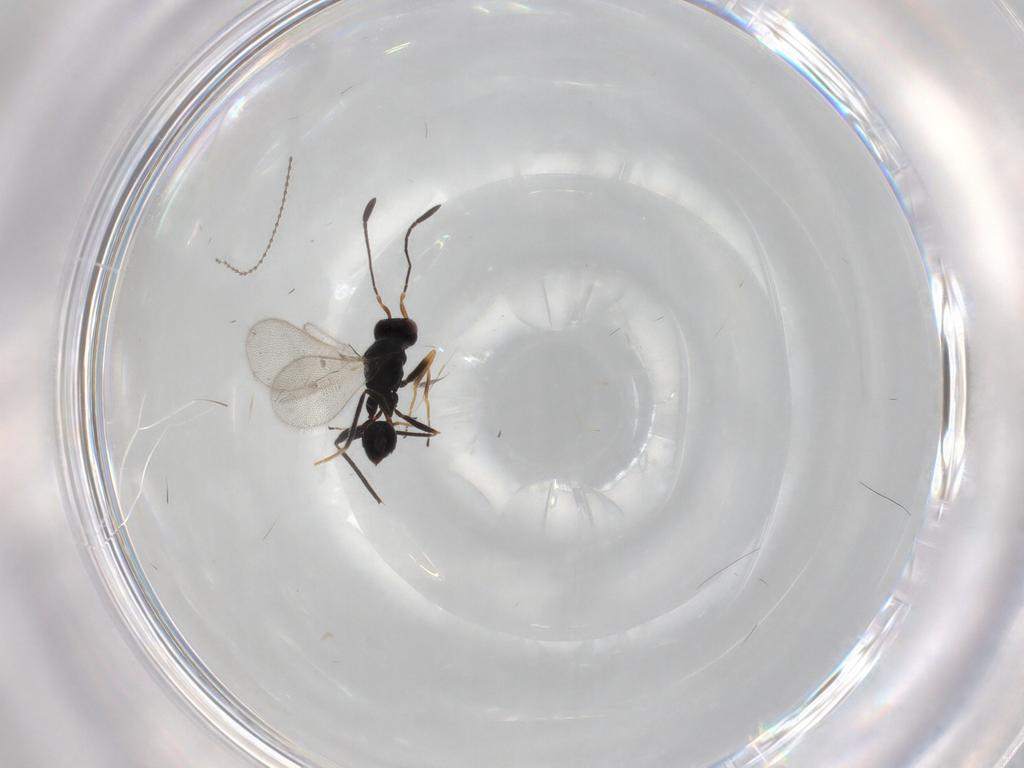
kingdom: Animalia
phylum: Arthropoda
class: Insecta
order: Hymenoptera
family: Mymaridae
